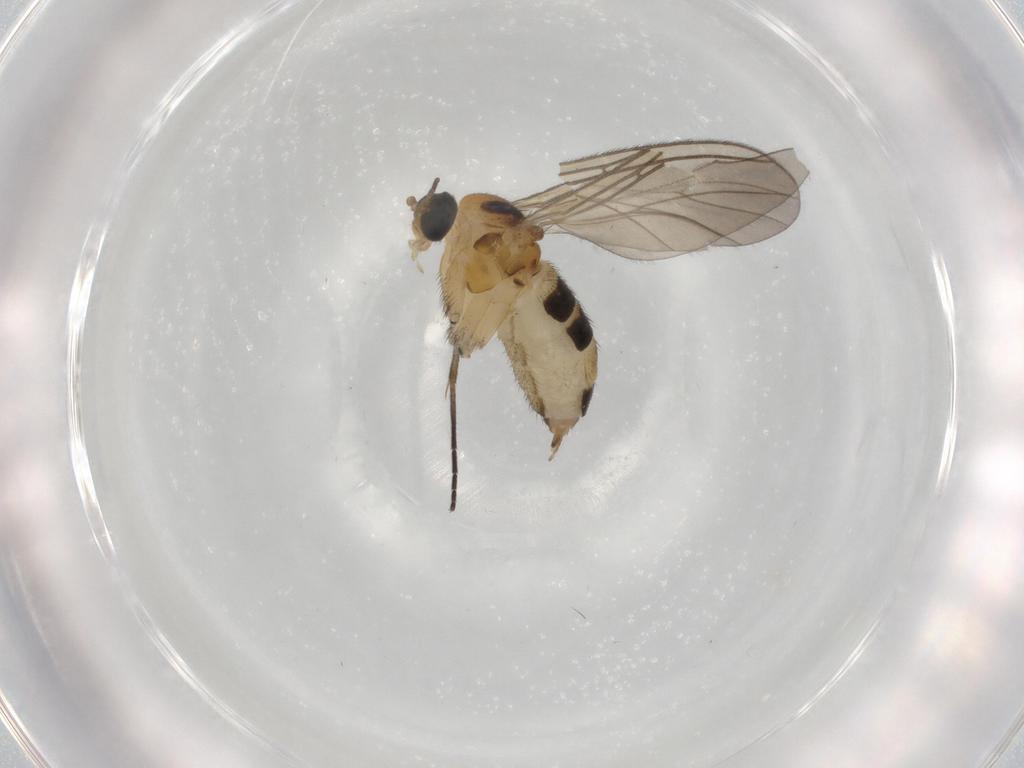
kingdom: Animalia
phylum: Arthropoda
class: Insecta
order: Diptera
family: Sciaridae
